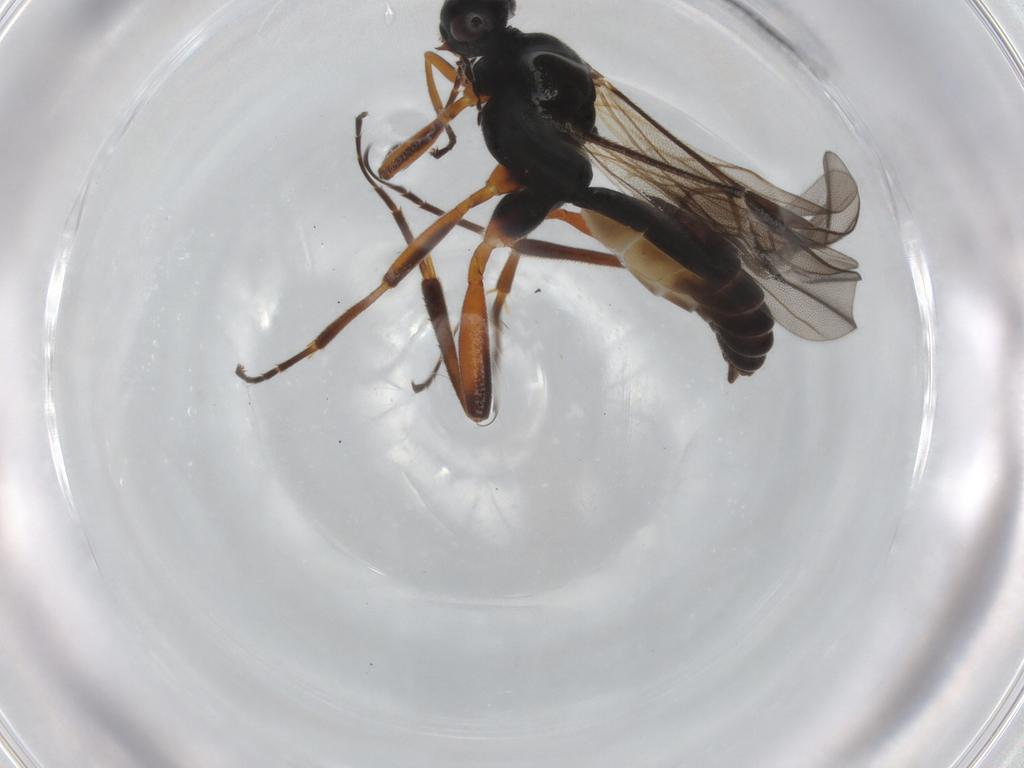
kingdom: Animalia
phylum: Arthropoda
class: Insecta
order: Hymenoptera
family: Braconidae
